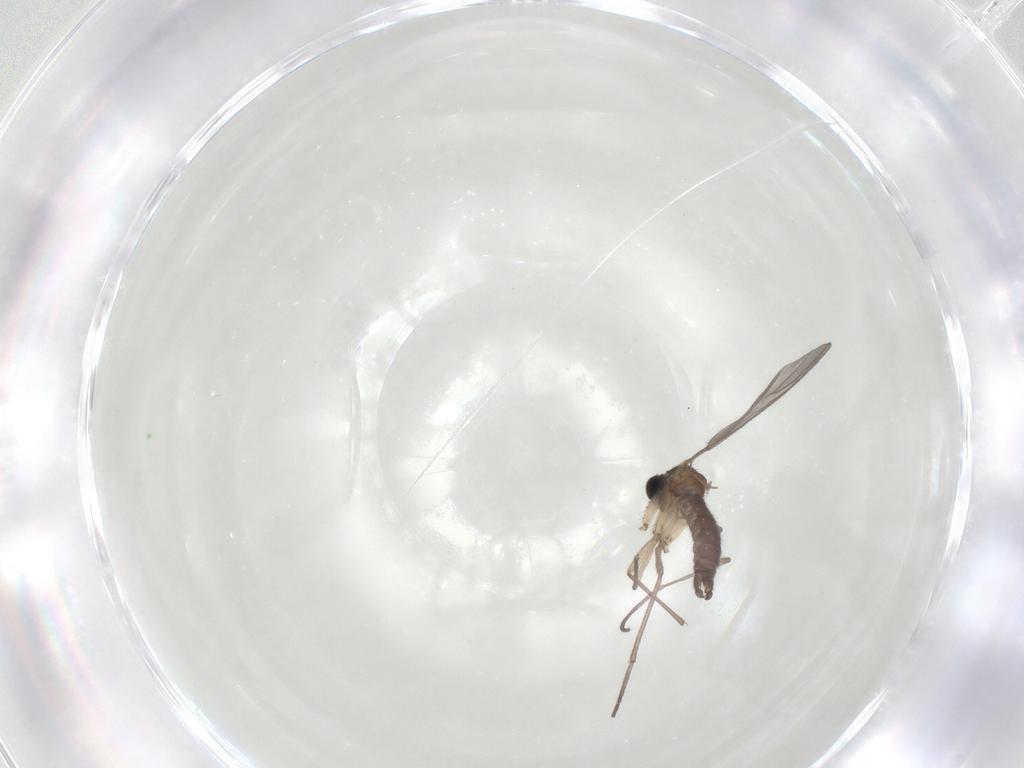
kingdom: Animalia
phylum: Arthropoda
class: Insecta
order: Diptera
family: Sciaridae
